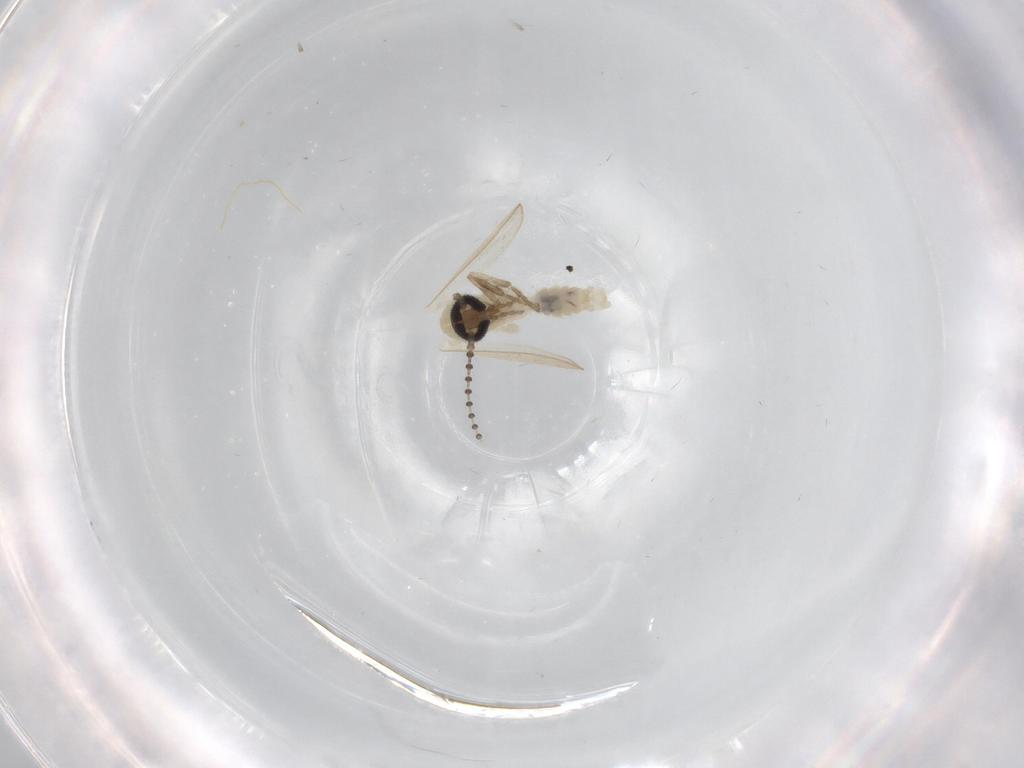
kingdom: Animalia
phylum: Arthropoda
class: Insecta
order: Diptera
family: Psychodidae
